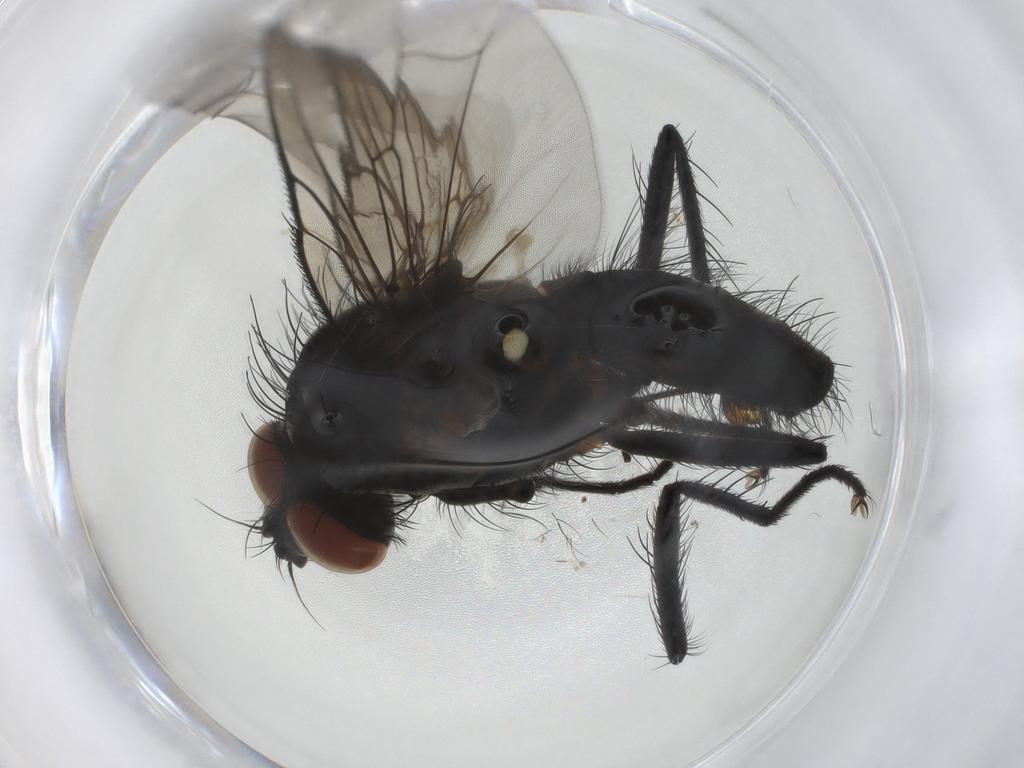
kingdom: Animalia
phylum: Arthropoda
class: Insecta
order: Diptera
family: Anthomyiidae
